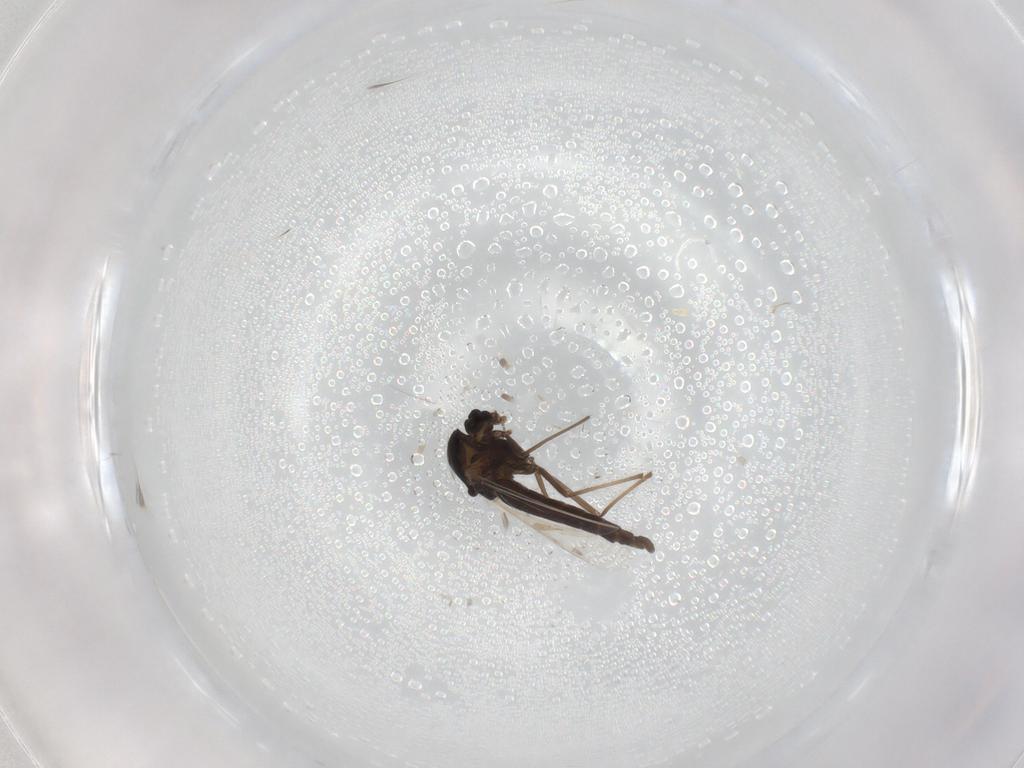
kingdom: Animalia
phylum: Arthropoda
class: Insecta
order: Diptera
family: Chironomidae
